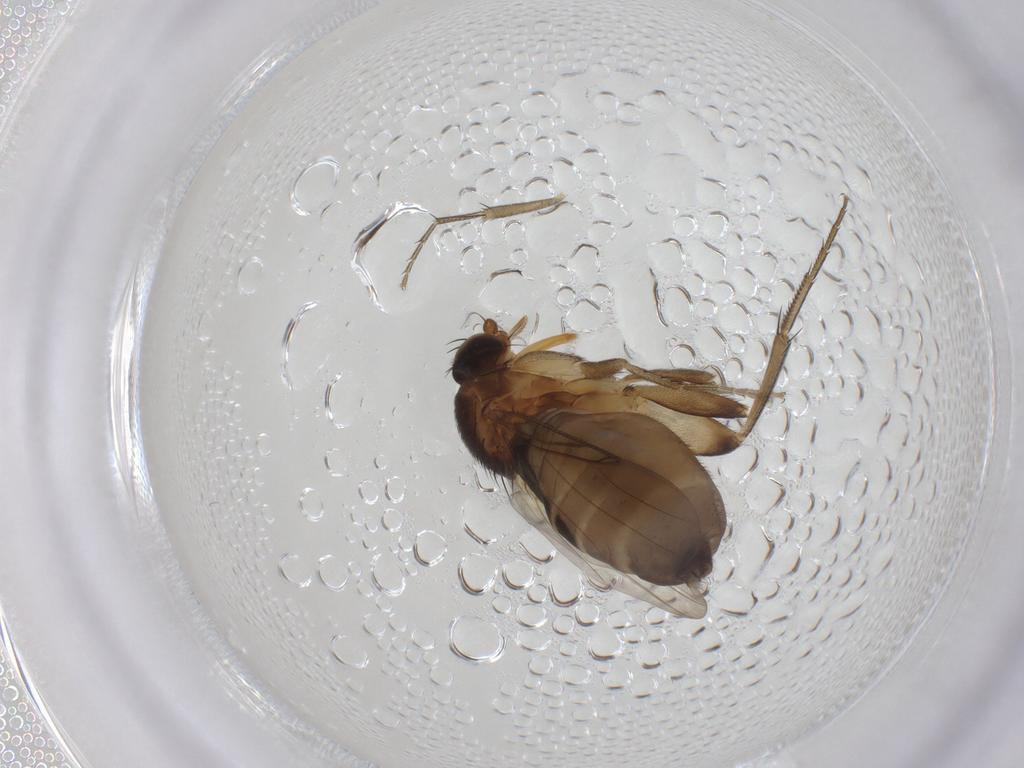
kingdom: Animalia
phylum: Arthropoda
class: Insecta
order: Diptera
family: Phoridae
